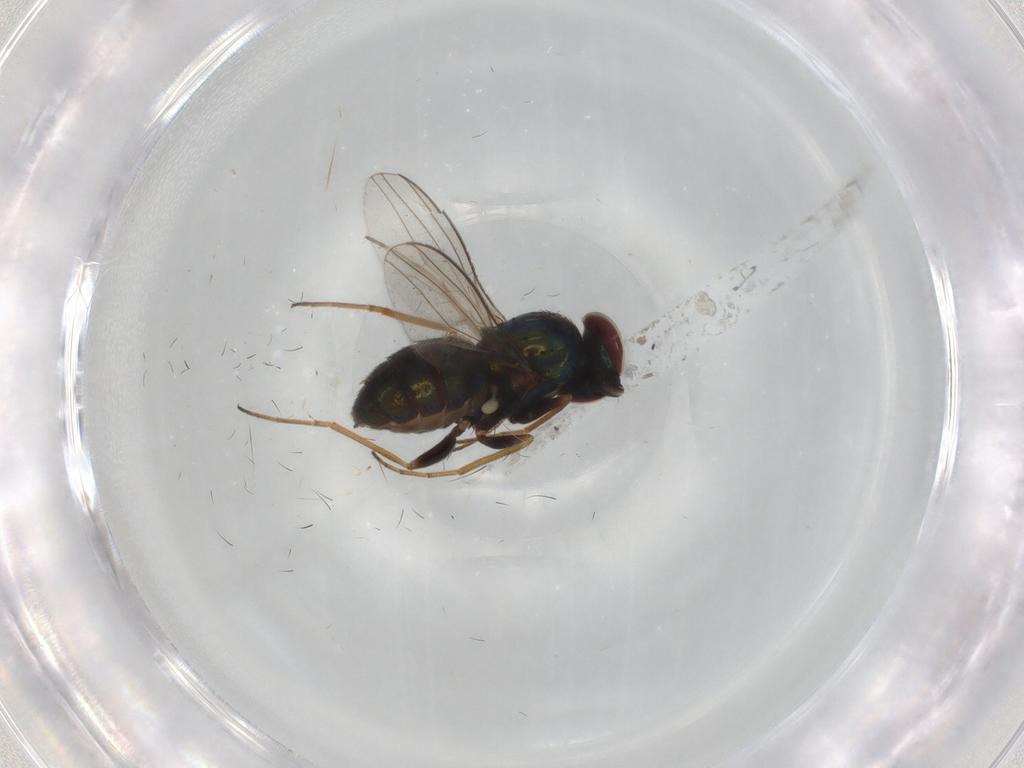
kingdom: Animalia
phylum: Arthropoda
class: Insecta
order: Diptera
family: Dolichopodidae
